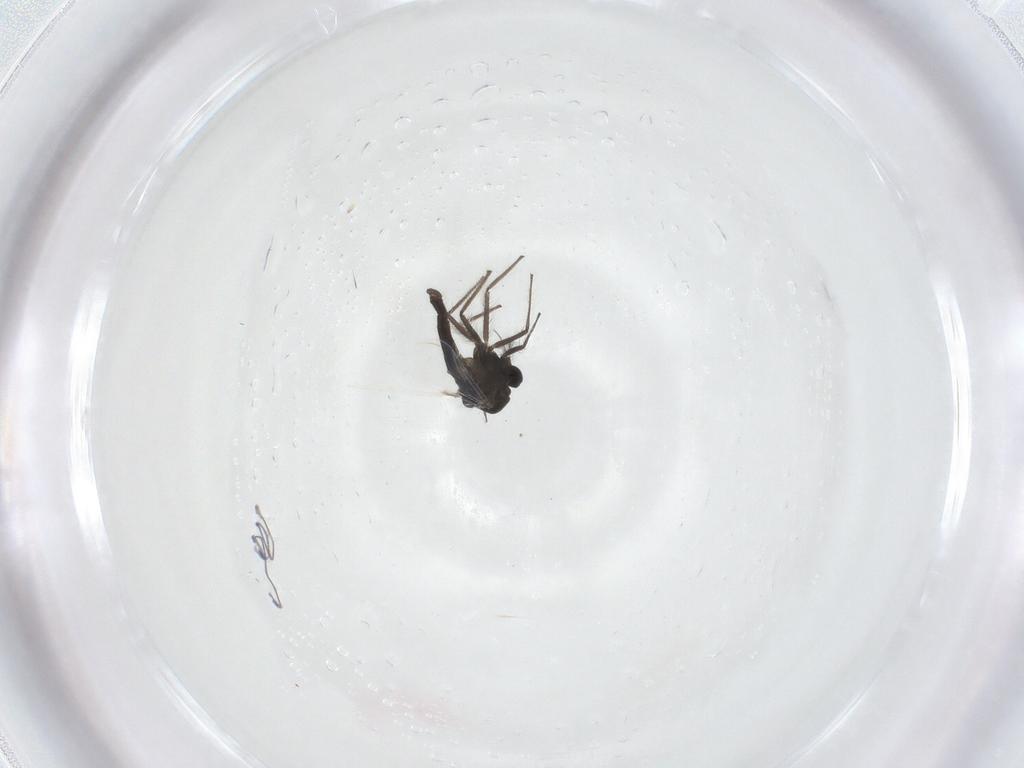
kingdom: Animalia
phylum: Arthropoda
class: Insecta
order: Diptera
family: Chironomidae
